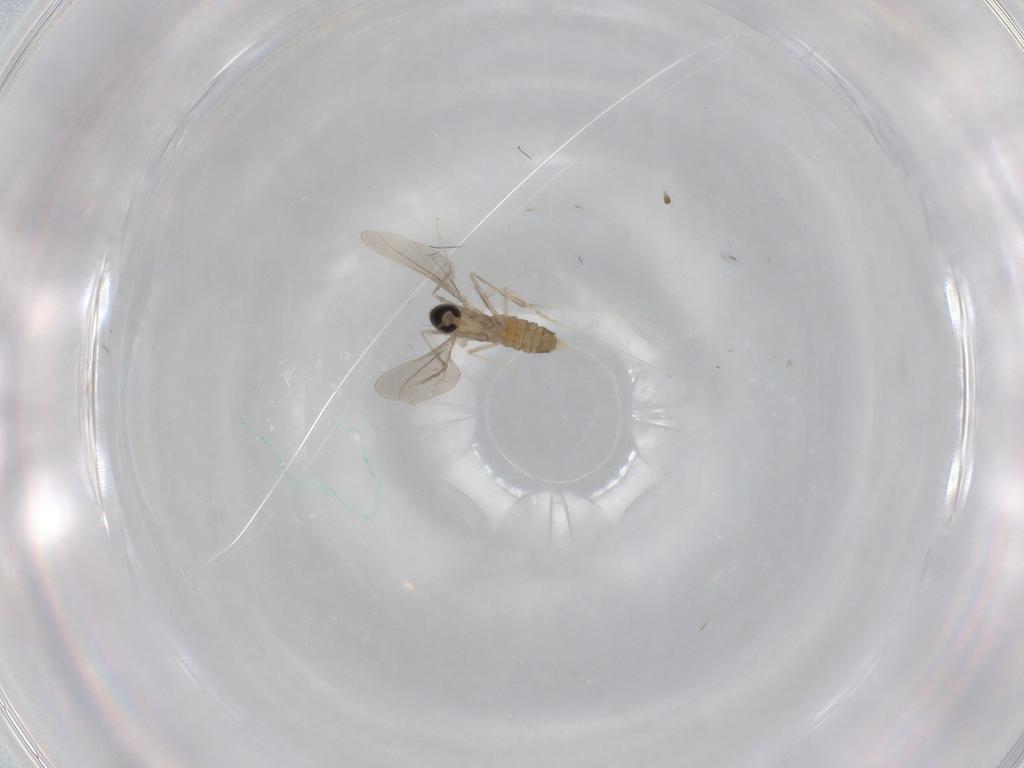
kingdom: Animalia
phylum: Arthropoda
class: Insecta
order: Diptera
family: Cecidomyiidae
